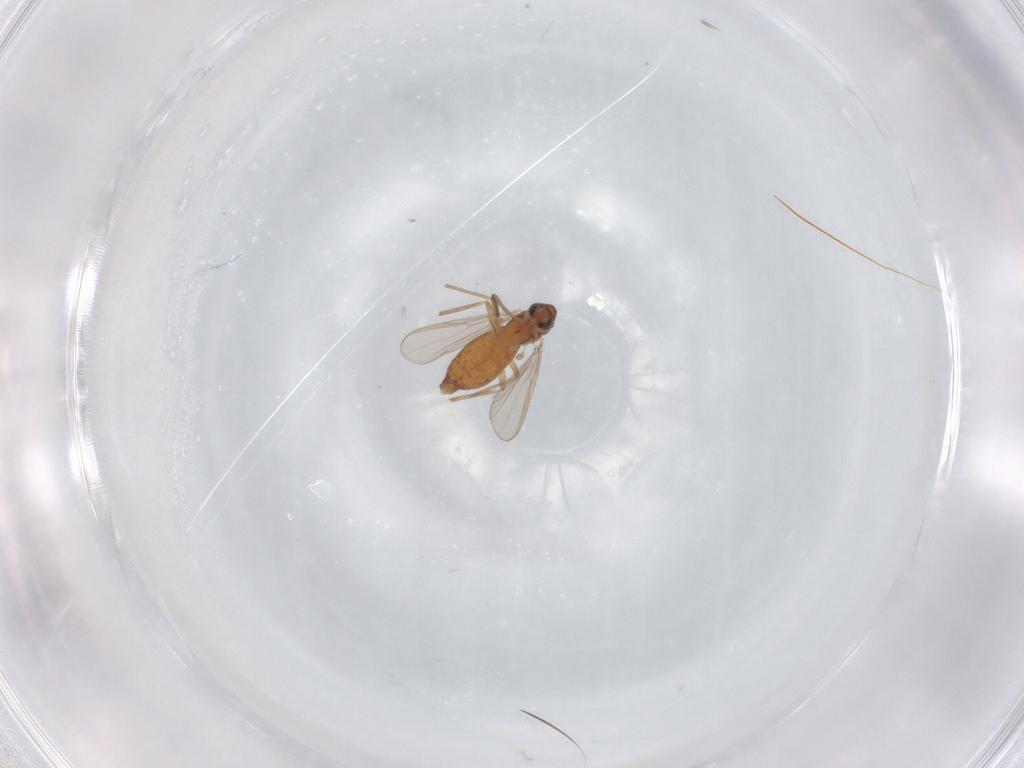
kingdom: Animalia
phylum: Arthropoda
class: Insecta
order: Diptera
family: Chironomidae
